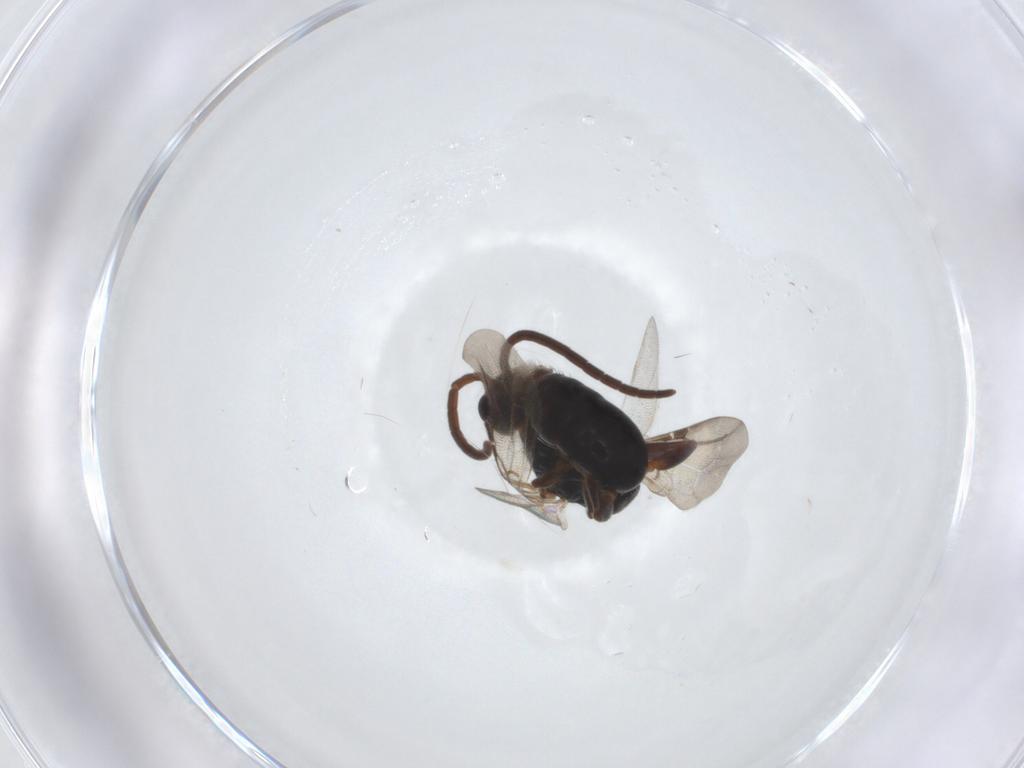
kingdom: Animalia
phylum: Arthropoda
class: Insecta
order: Hymenoptera
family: Bethylidae
